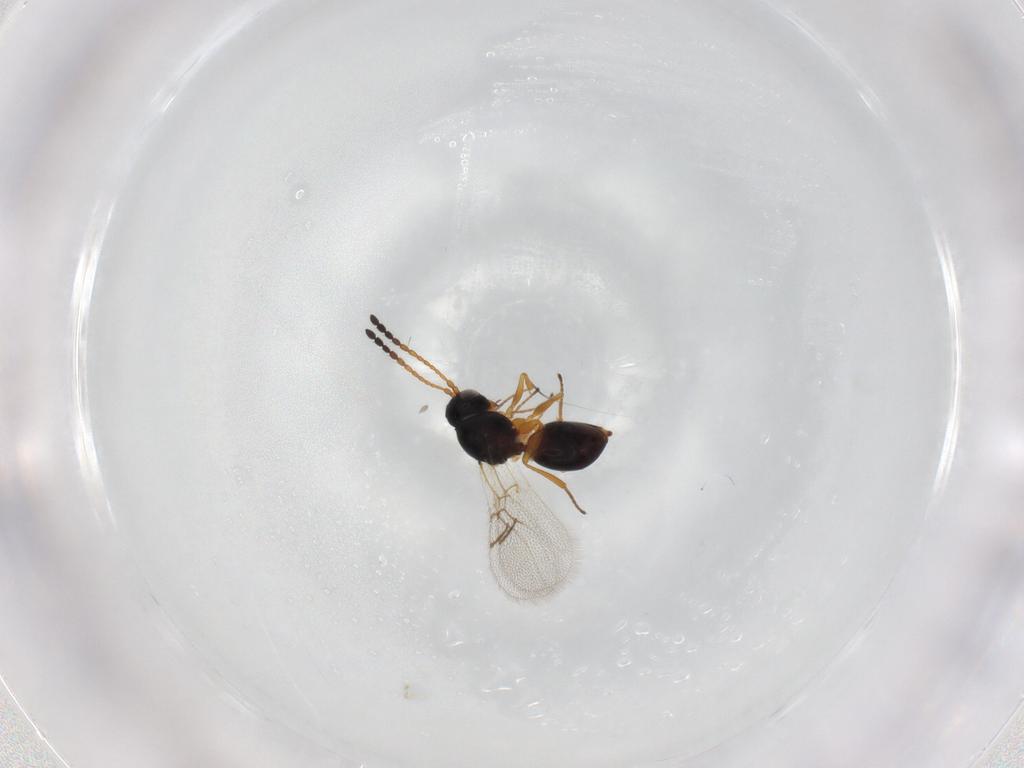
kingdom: Animalia
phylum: Arthropoda
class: Insecta
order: Hymenoptera
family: Figitidae
